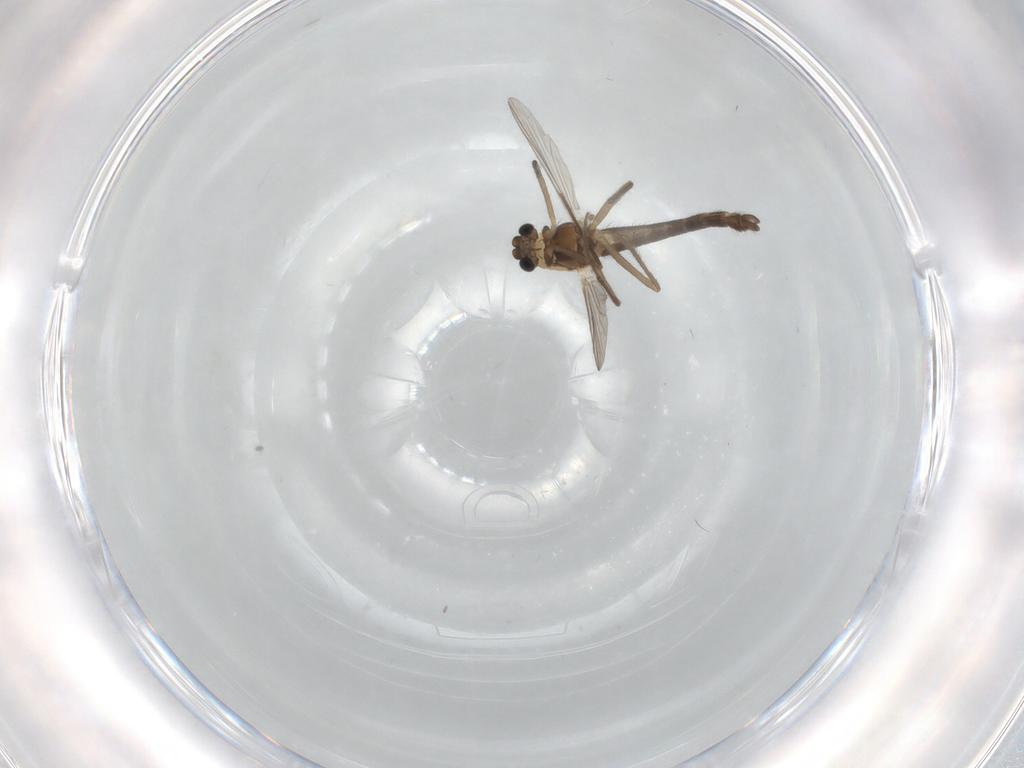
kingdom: Animalia
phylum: Arthropoda
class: Insecta
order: Diptera
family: Chironomidae
